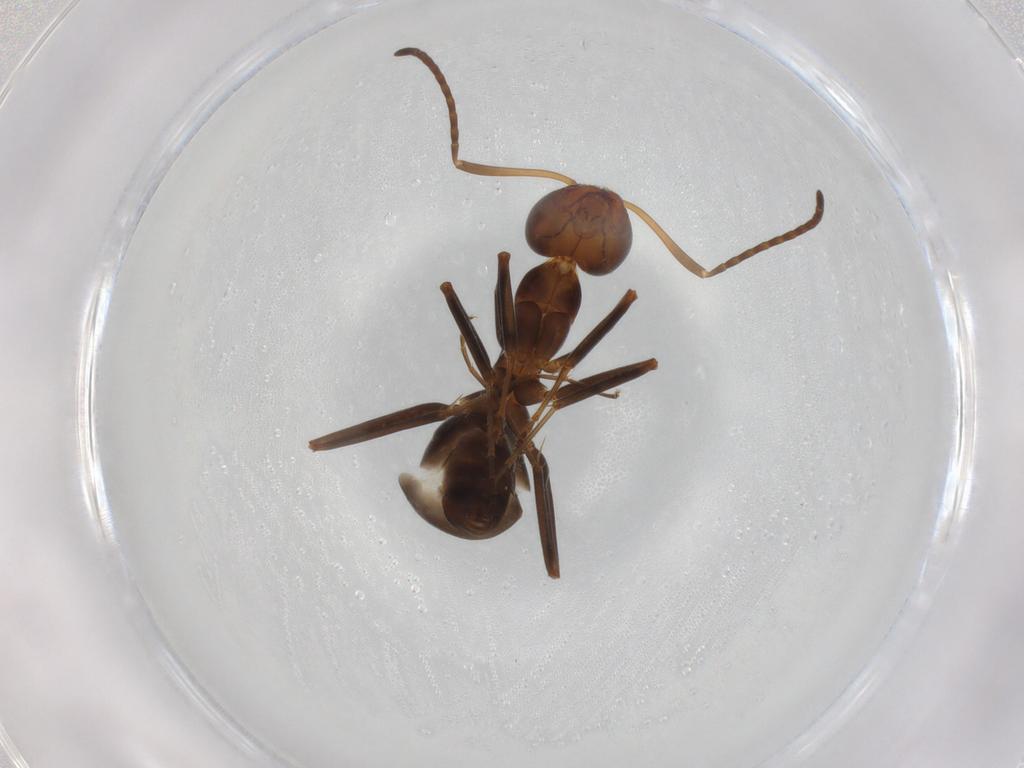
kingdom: Animalia
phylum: Arthropoda
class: Insecta
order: Hymenoptera
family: Formicidae
